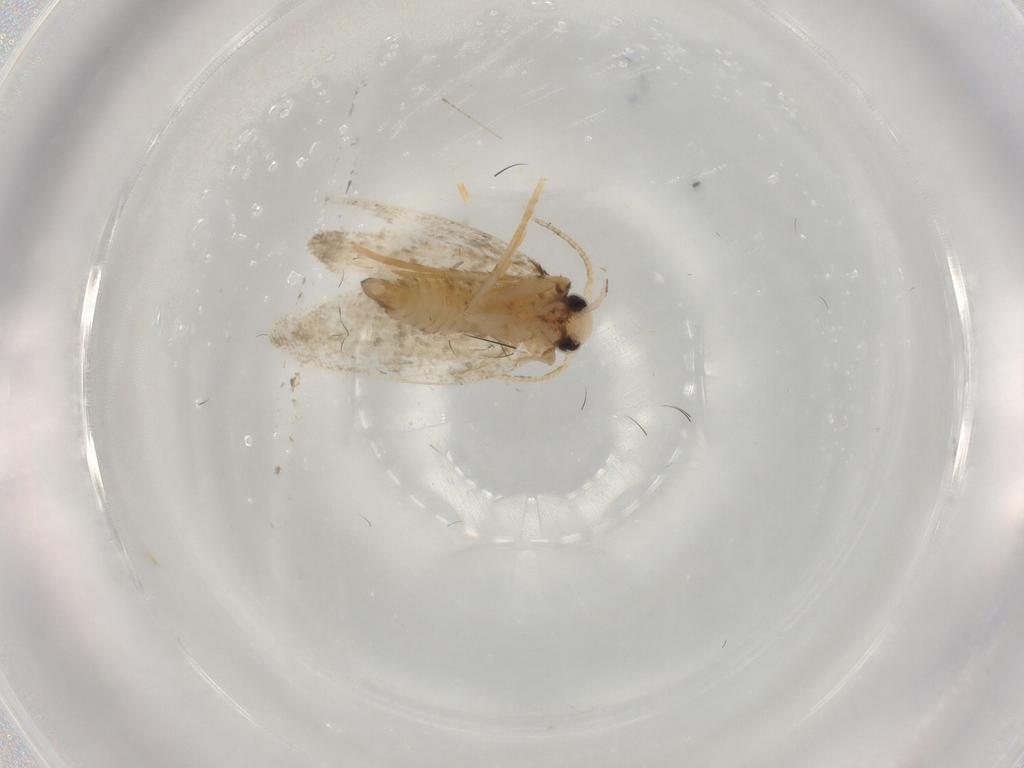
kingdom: Animalia
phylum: Arthropoda
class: Insecta
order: Lepidoptera
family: Psychidae
